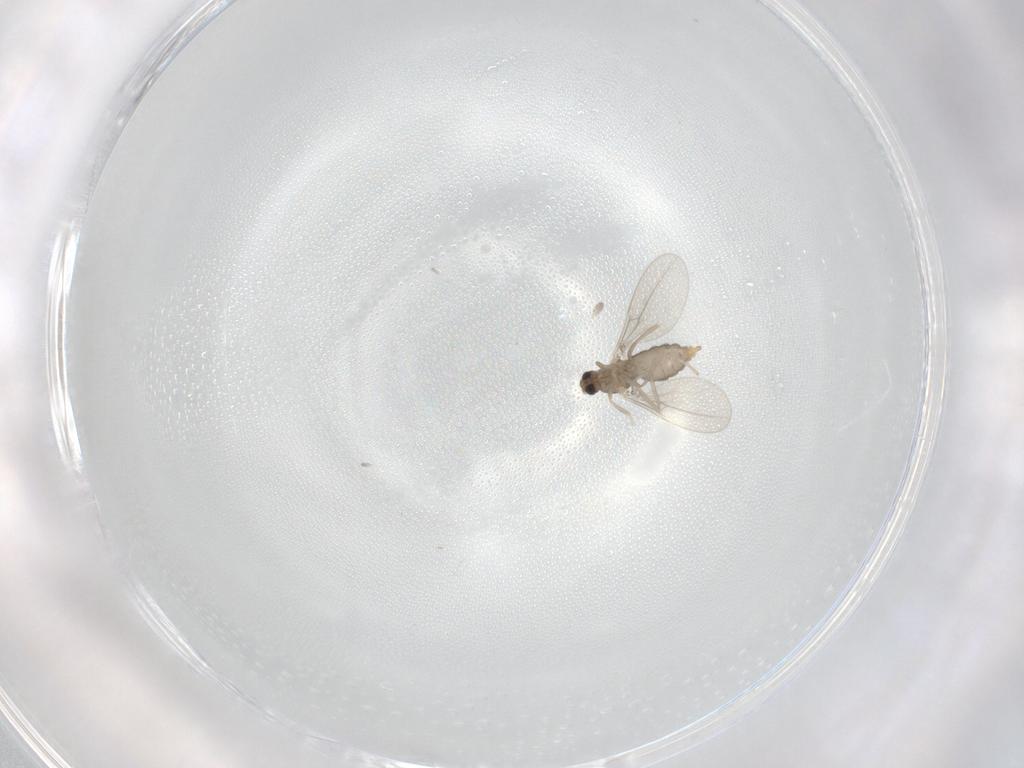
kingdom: Animalia
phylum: Arthropoda
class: Insecta
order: Diptera
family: Cecidomyiidae
